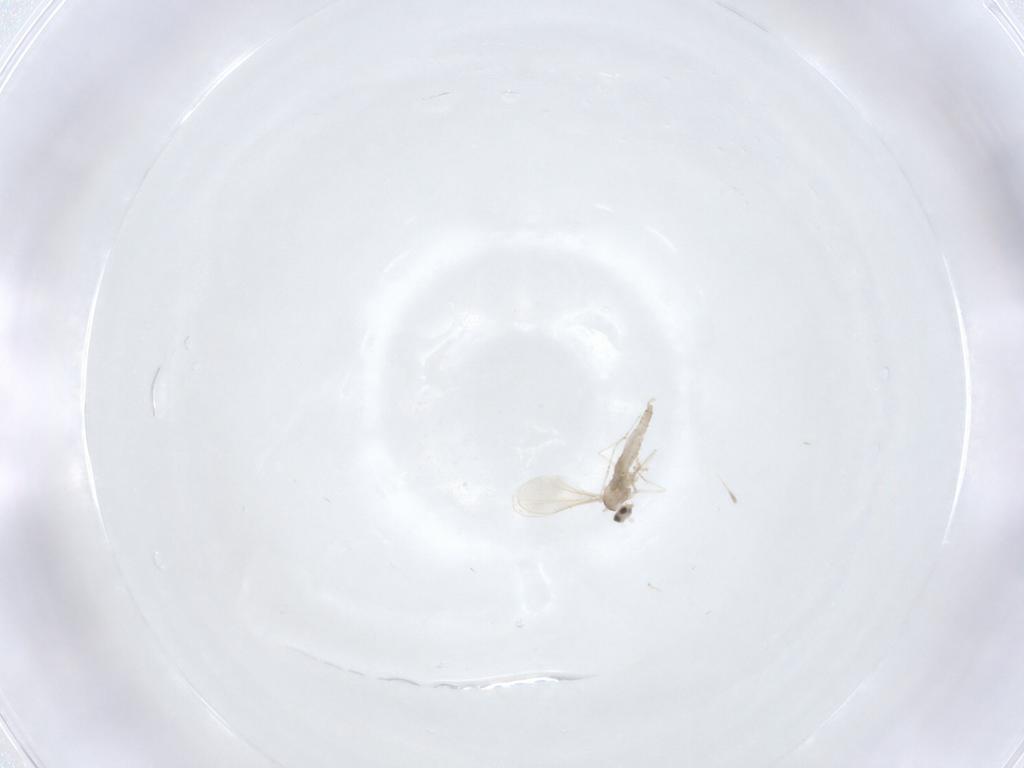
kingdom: Animalia
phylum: Arthropoda
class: Insecta
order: Diptera
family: Cecidomyiidae
